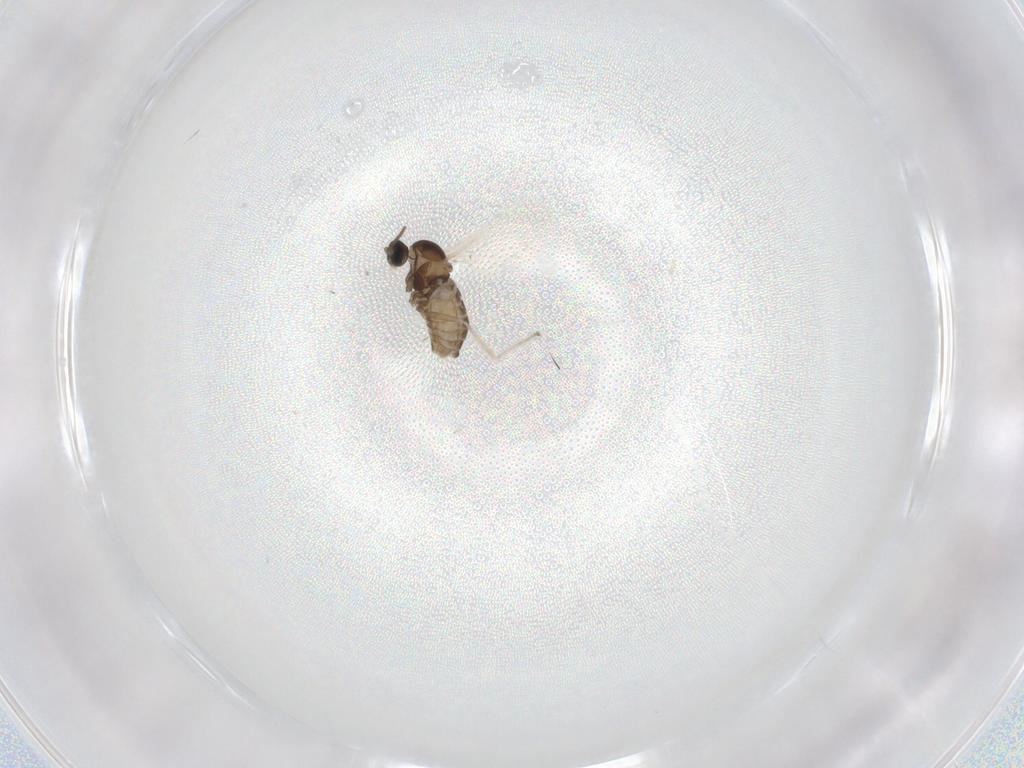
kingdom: Animalia
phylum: Arthropoda
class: Insecta
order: Diptera
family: Cecidomyiidae
